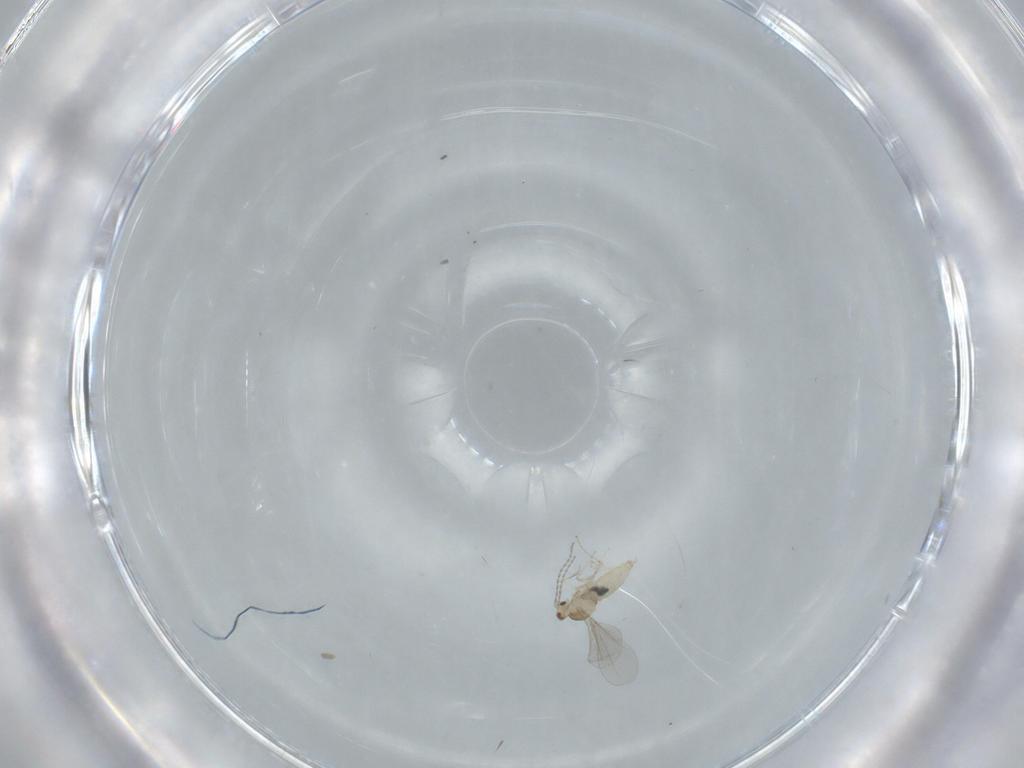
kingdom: Animalia
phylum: Arthropoda
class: Insecta
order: Diptera
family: Cecidomyiidae
